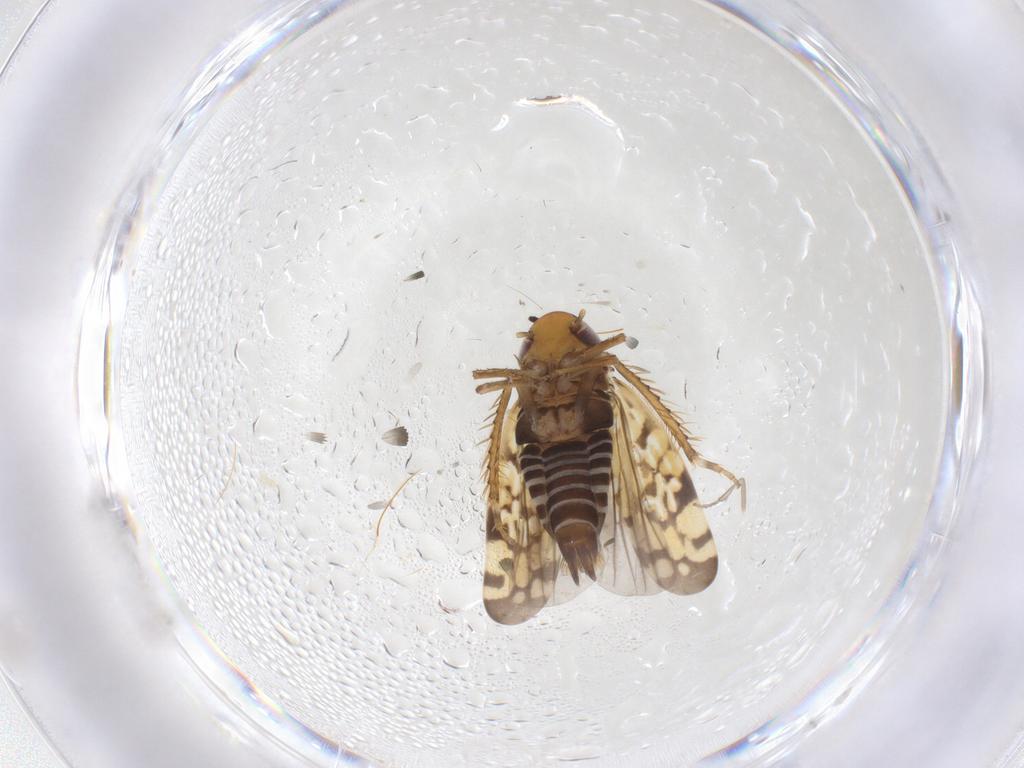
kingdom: Animalia
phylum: Arthropoda
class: Insecta
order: Hemiptera
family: Cicadellidae
